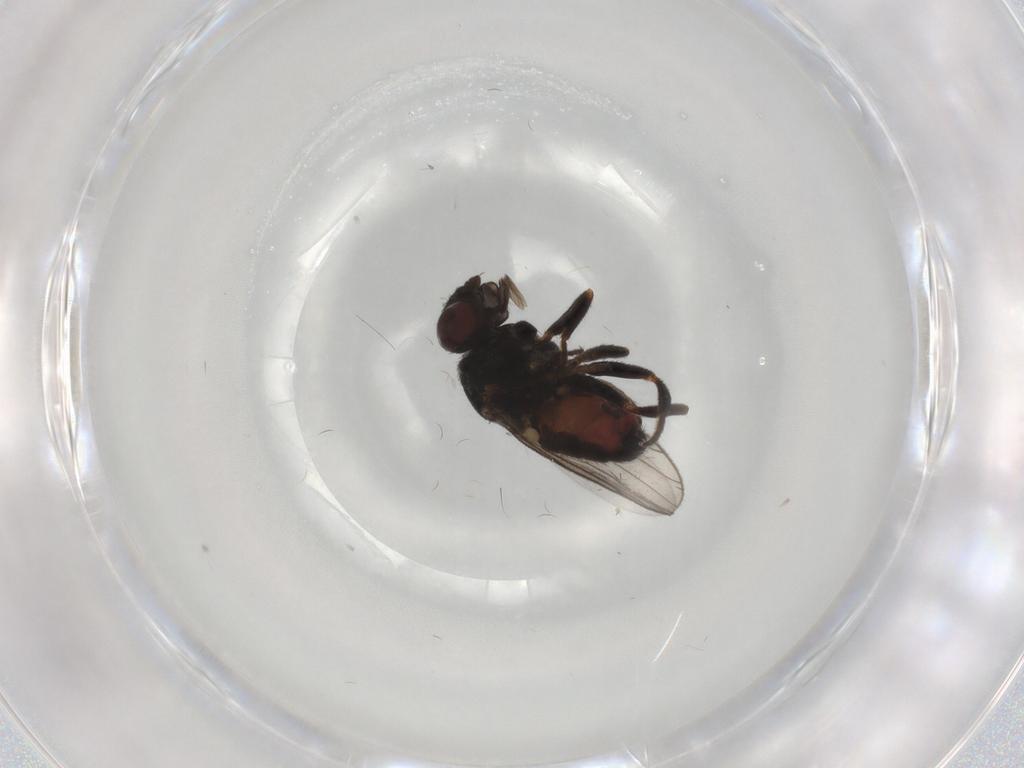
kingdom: Animalia
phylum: Arthropoda
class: Insecta
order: Diptera
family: Chloropidae
